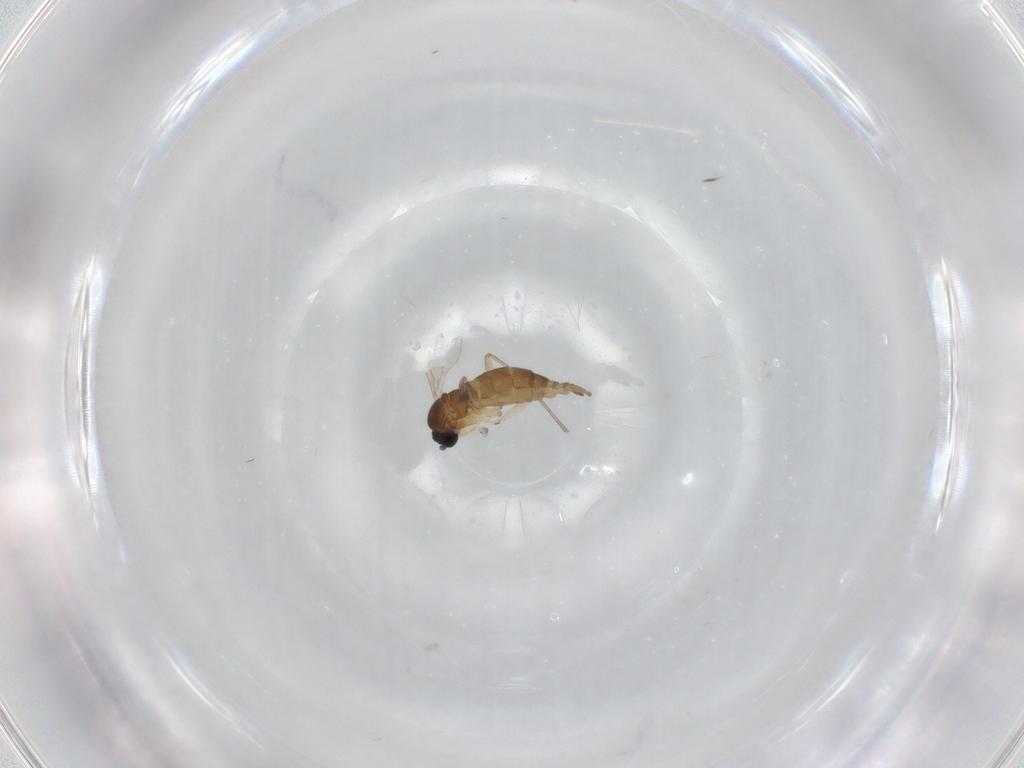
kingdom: Animalia
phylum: Arthropoda
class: Insecta
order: Diptera
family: Sciaridae
